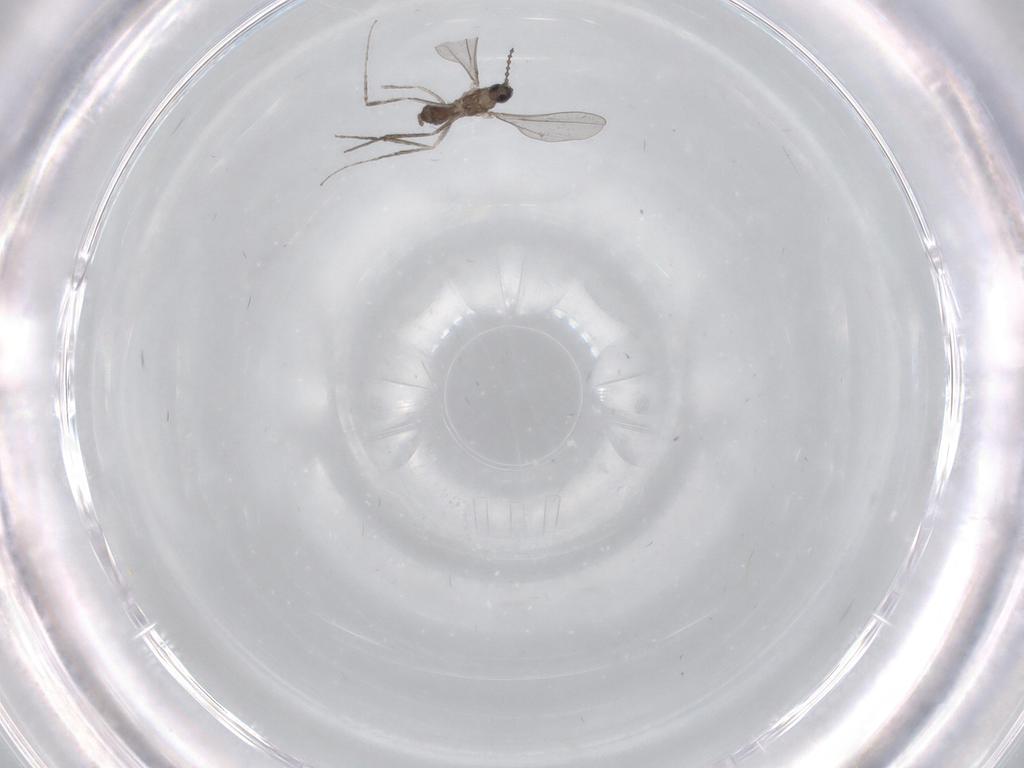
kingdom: Animalia
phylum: Arthropoda
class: Insecta
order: Diptera
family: Cecidomyiidae
